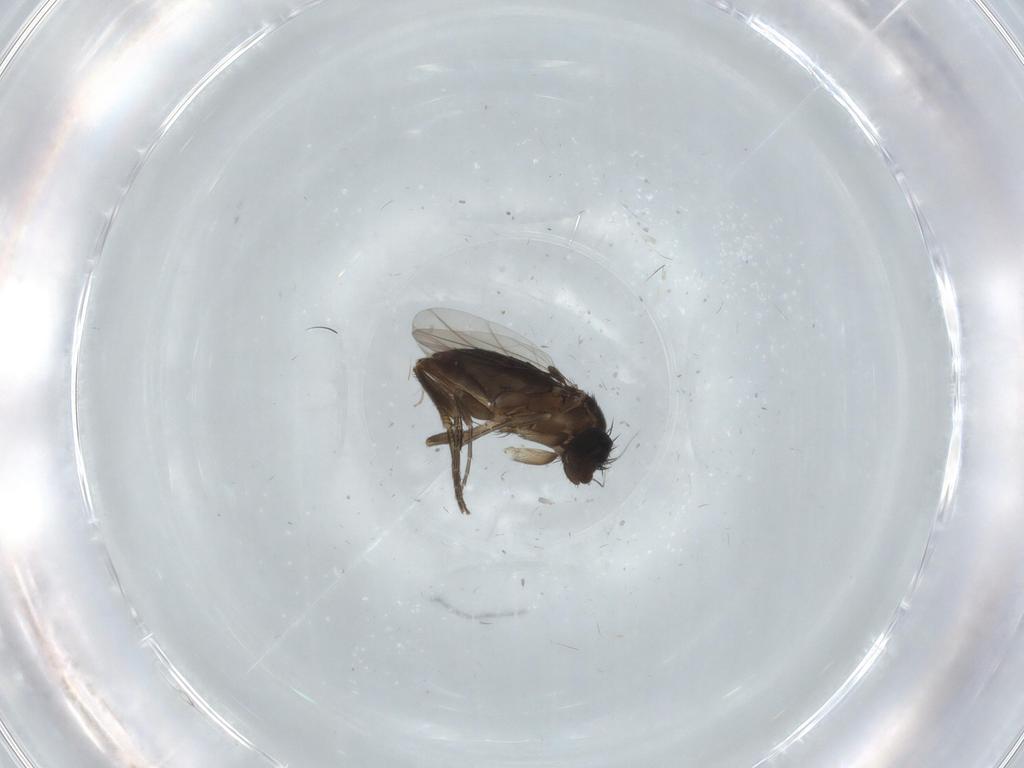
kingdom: Animalia
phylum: Arthropoda
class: Insecta
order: Diptera
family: Phoridae
